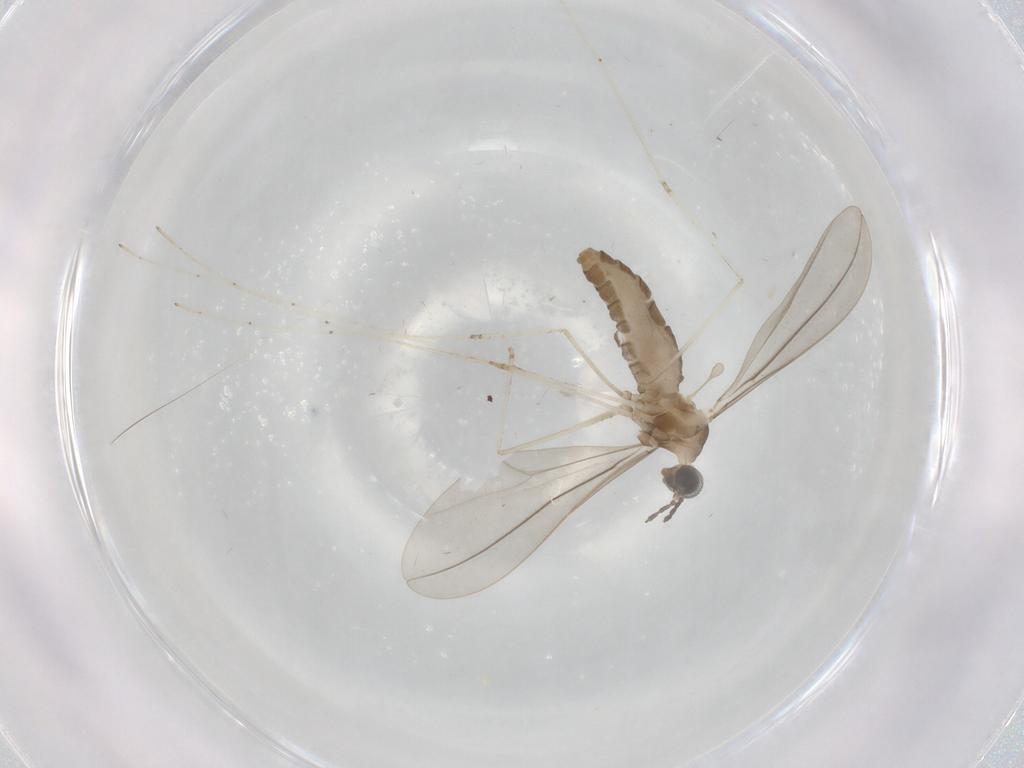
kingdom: Animalia
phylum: Arthropoda
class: Insecta
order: Diptera
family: Cecidomyiidae
